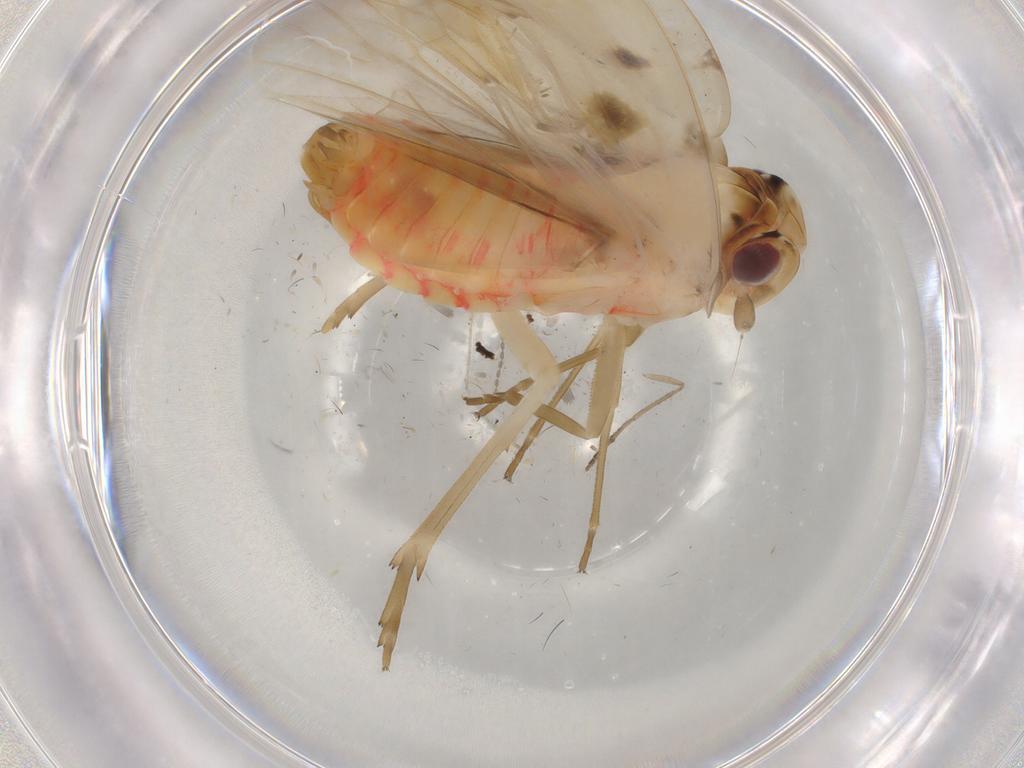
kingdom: Animalia
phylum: Arthropoda
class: Insecta
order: Hemiptera
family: Achilidae
